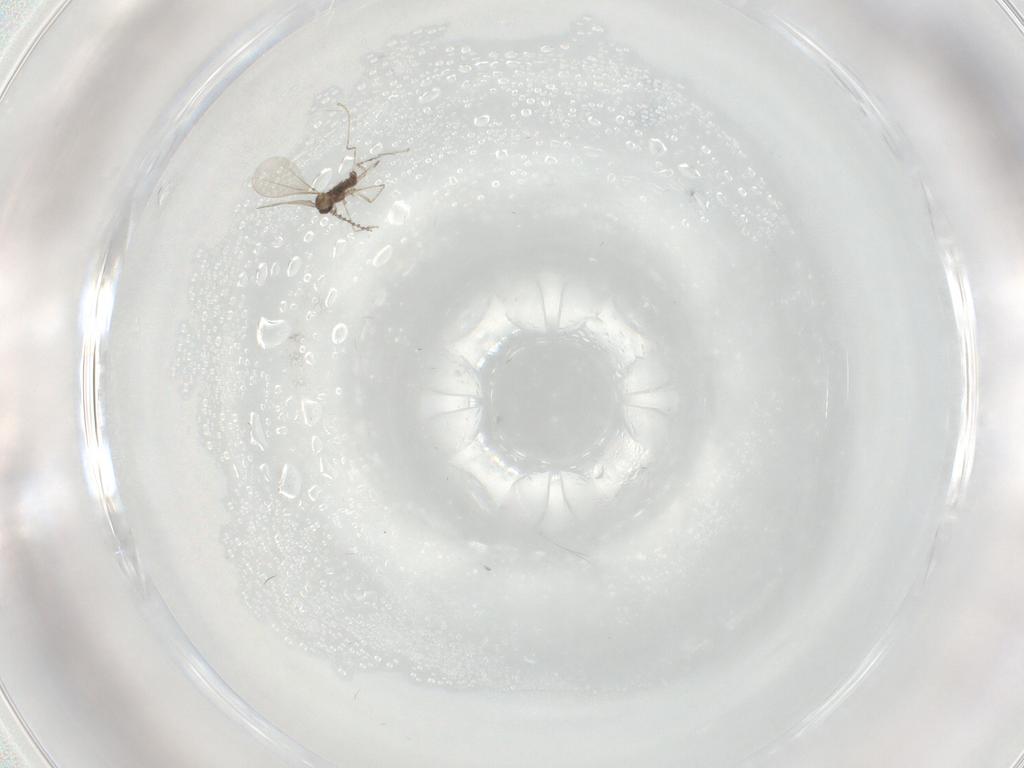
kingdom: Animalia
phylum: Arthropoda
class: Insecta
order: Diptera
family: Cecidomyiidae
